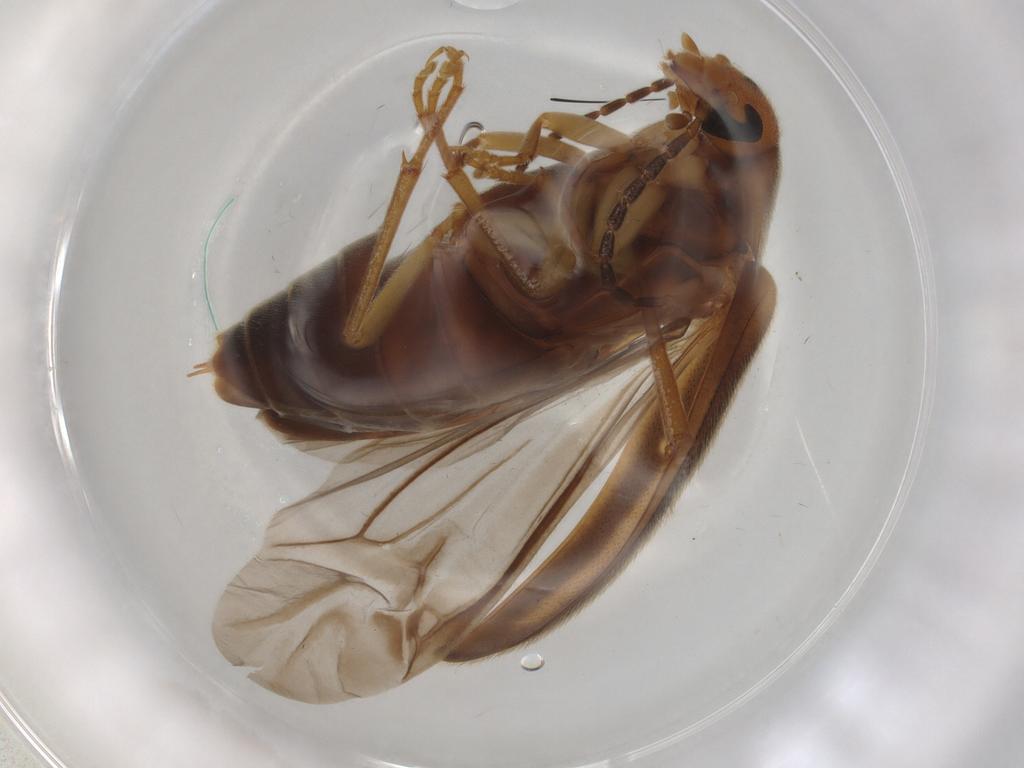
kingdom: Animalia
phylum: Arthropoda
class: Insecta
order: Coleoptera
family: Scraptiidae
